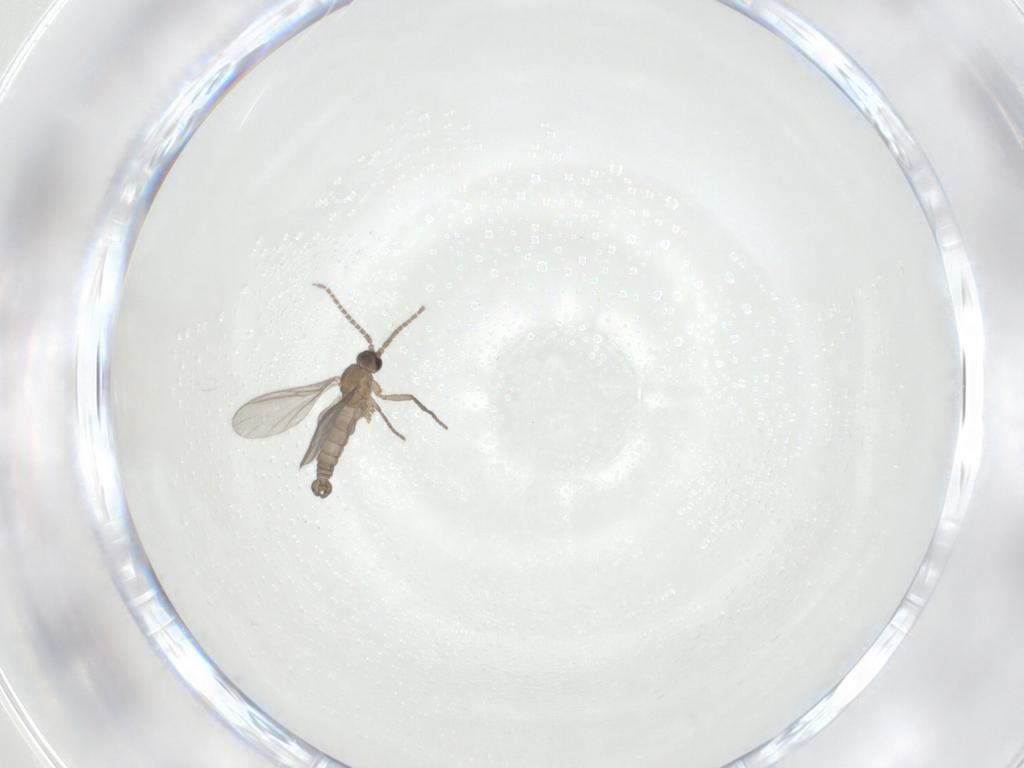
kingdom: Animalia
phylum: Arthropoda
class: Insecta
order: Diptera
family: Sciaridae
